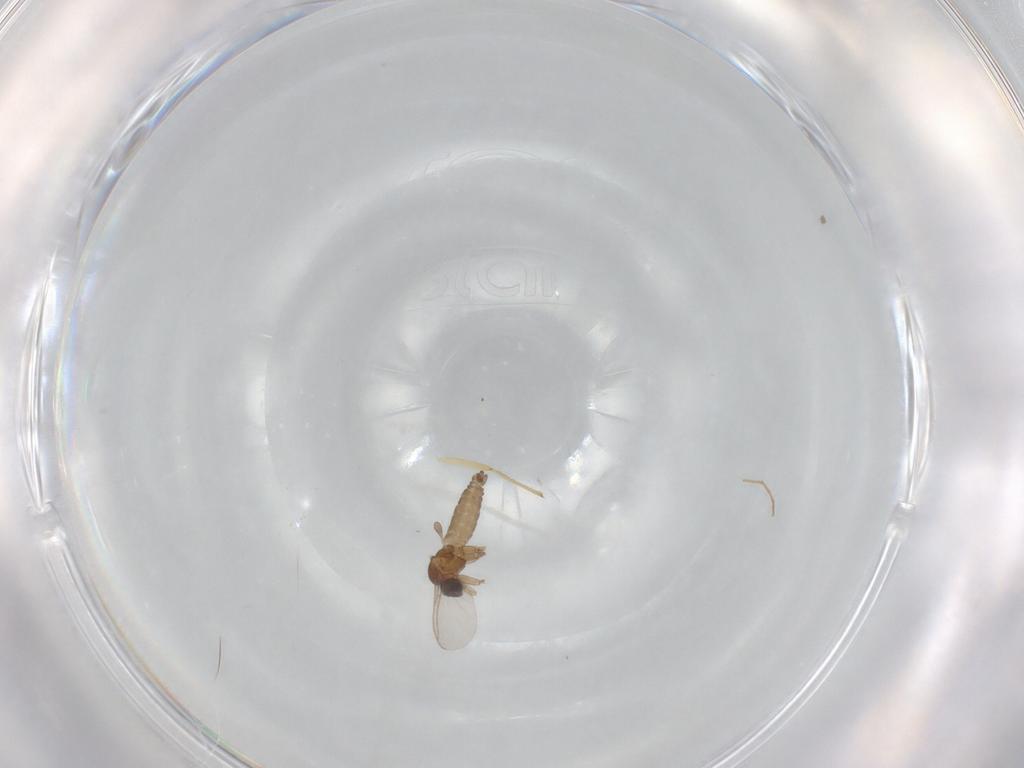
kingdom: Animalia
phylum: Arthropoda
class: Insecta
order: Diptera
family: Sciaridae
